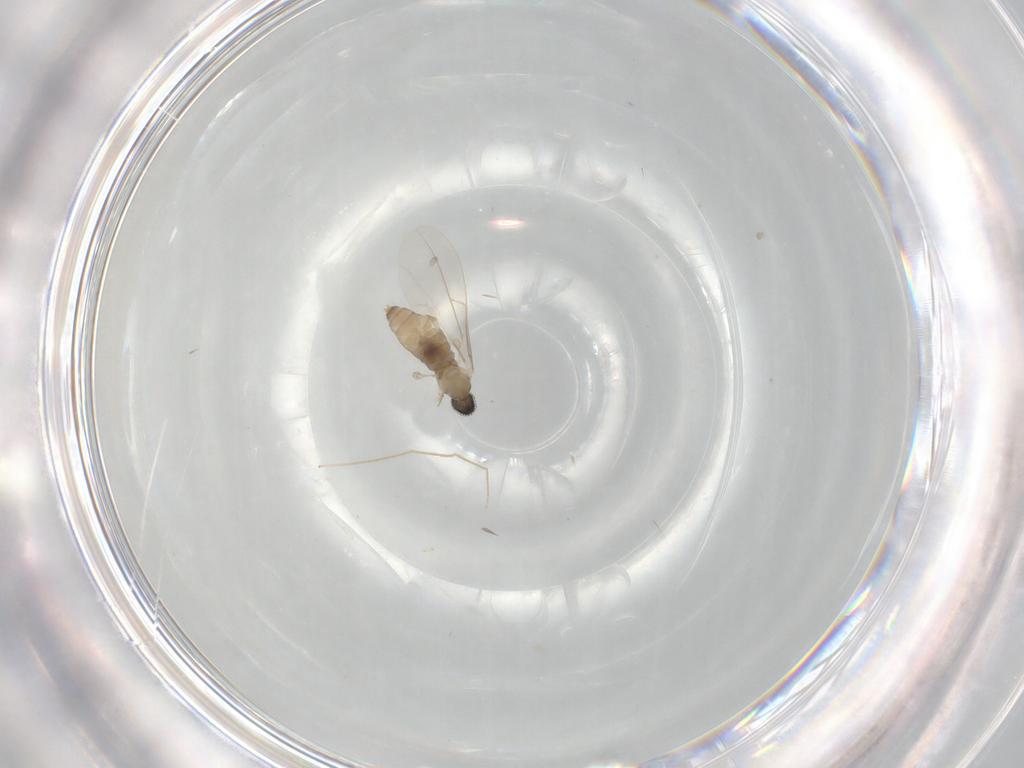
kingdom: Animalia
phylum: Arthropoda
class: Insecta
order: Diptera
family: Cecidomyiidae
